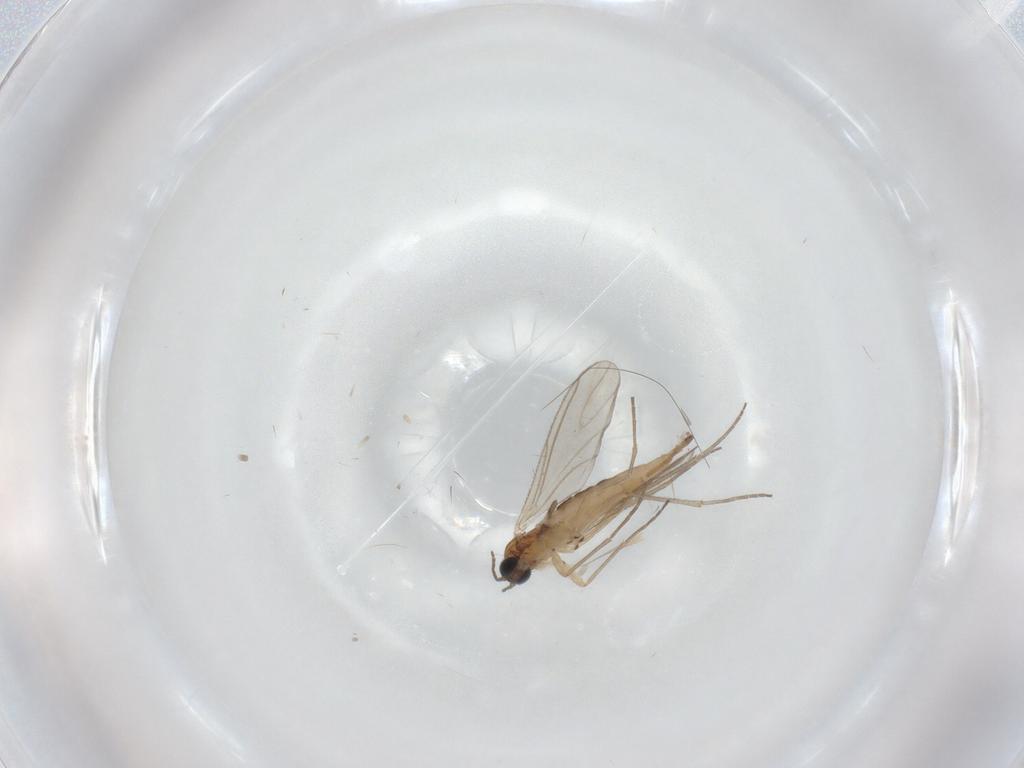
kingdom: Animalia
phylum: Arthropoda
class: Insecta
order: Diptera
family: Sciaridae
